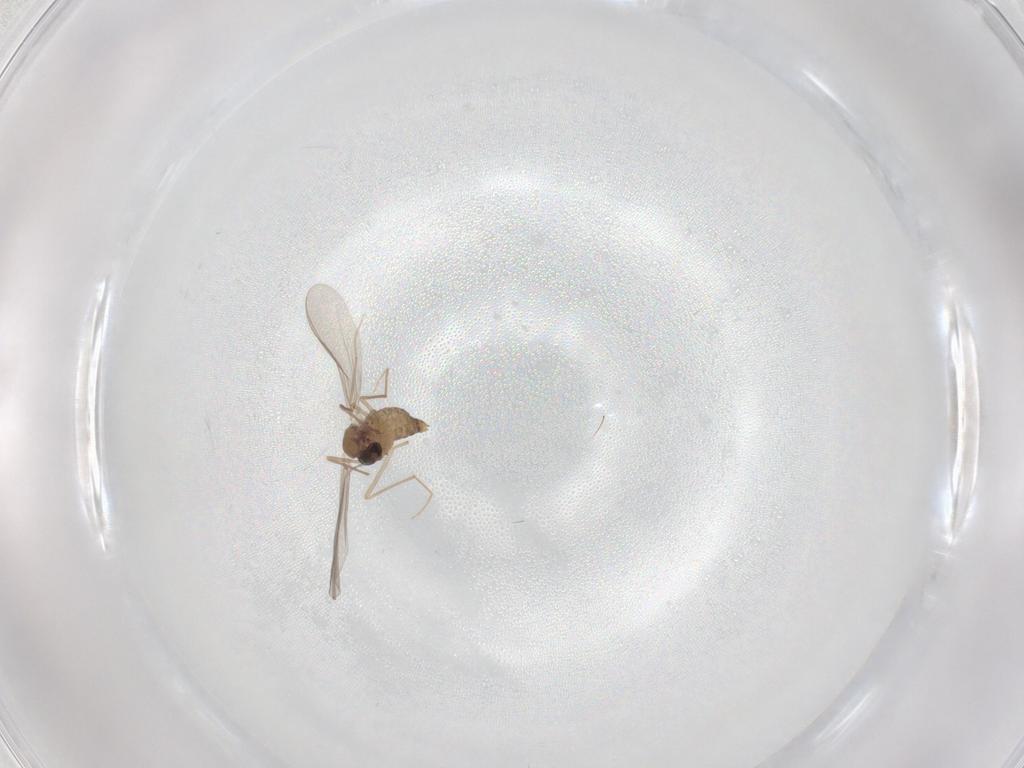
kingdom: Animalia
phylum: Arthropoda
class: Insecta
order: Diptera
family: Chironomidae
